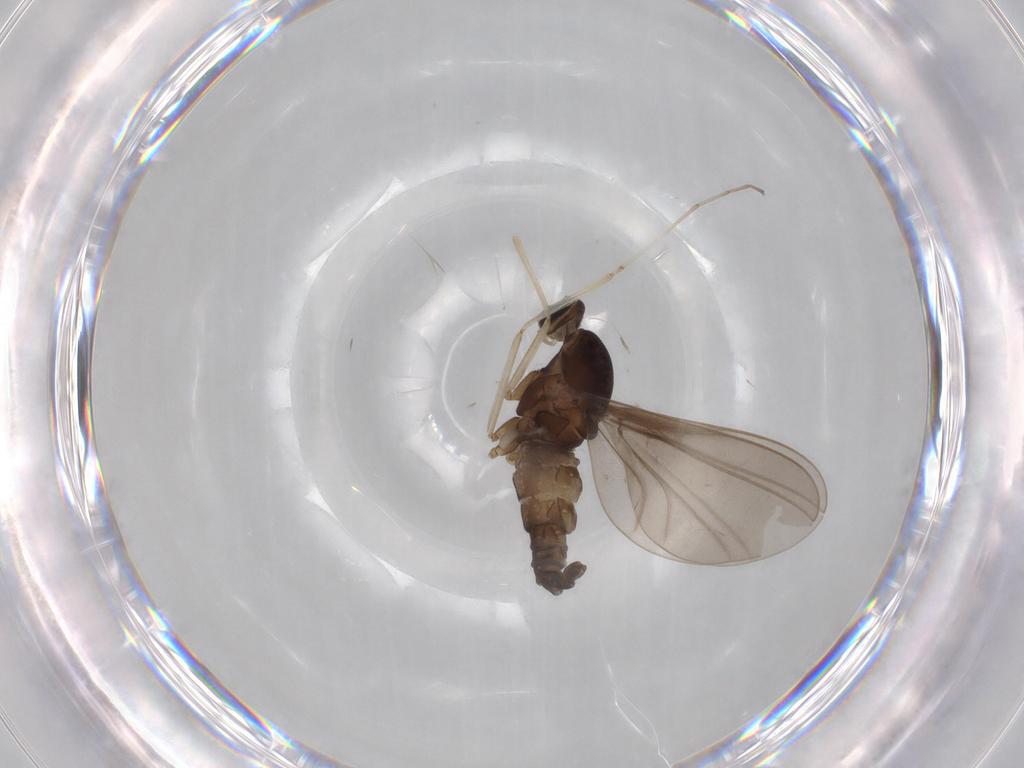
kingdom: Animalia
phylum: Arthropoda
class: Insecta
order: Diptera
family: Cecidomyiidae
